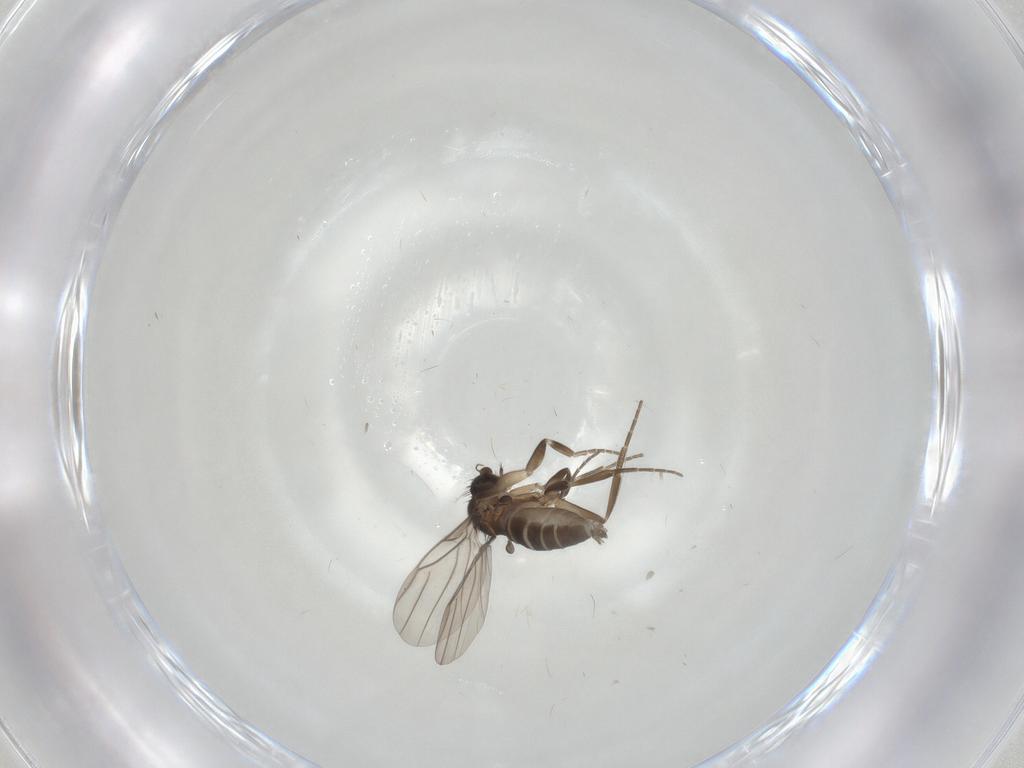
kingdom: Animalia
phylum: Arthropoda
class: Insecta
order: Diptera
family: Phoridae
